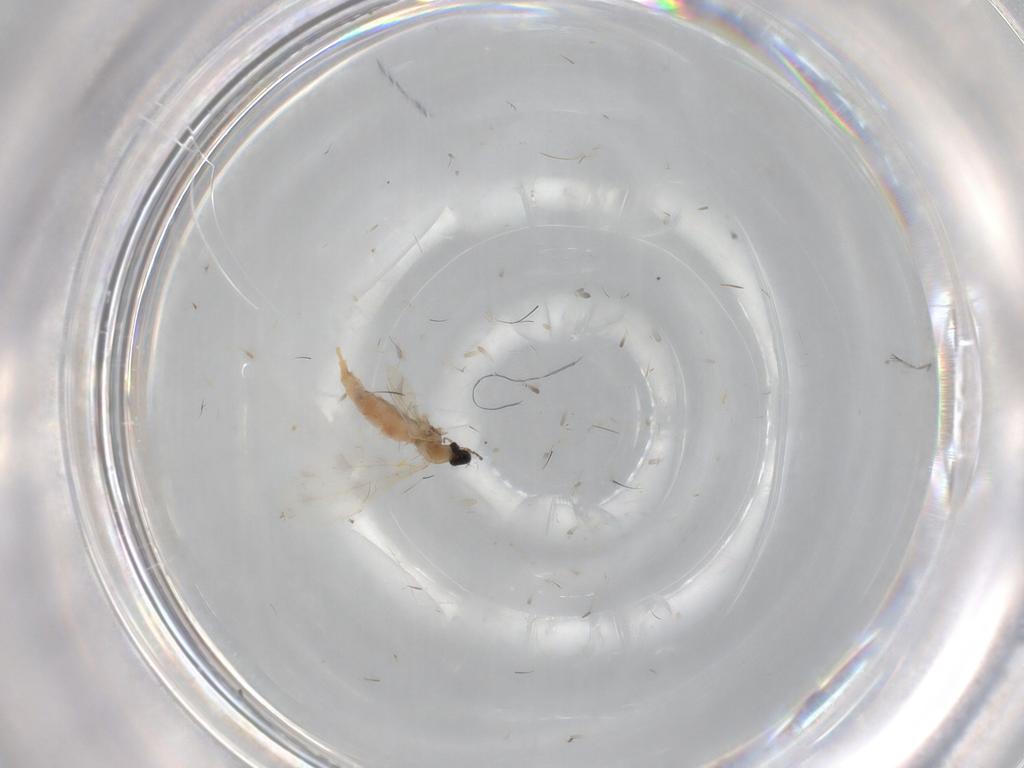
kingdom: Animalia
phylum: Arthropoda
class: Insecta
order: Diptera
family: Cecidomyiidae
